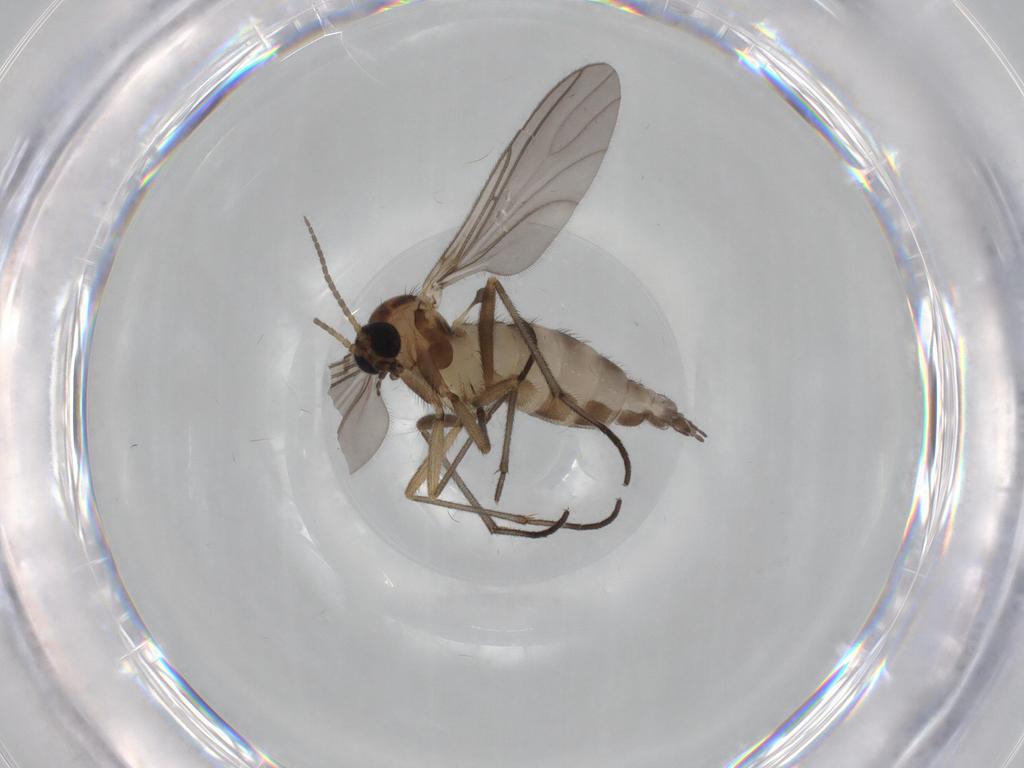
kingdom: Animalia
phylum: Arthropoda
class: Insecta
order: Diptera
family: Sciaridae
